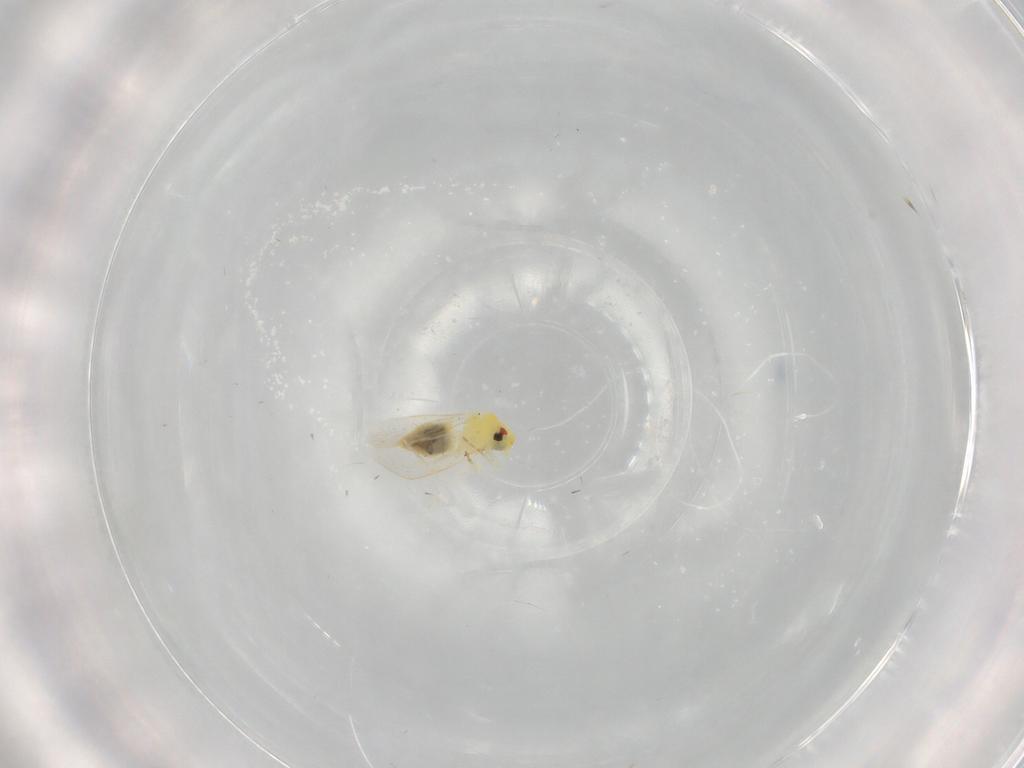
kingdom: Animalia
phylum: Arthropoda
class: Insecta
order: Hemiptera
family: Aleyrodidae
